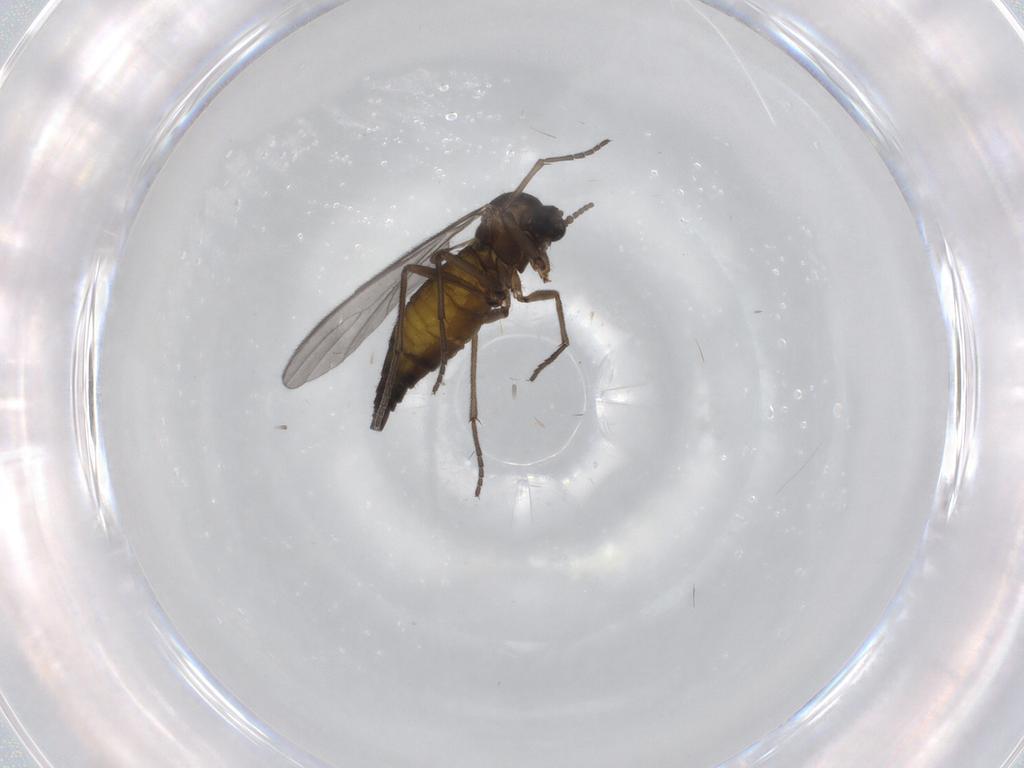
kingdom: Animalia
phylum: Arthropoda
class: Insecta
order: Diptera
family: Sciaridae
